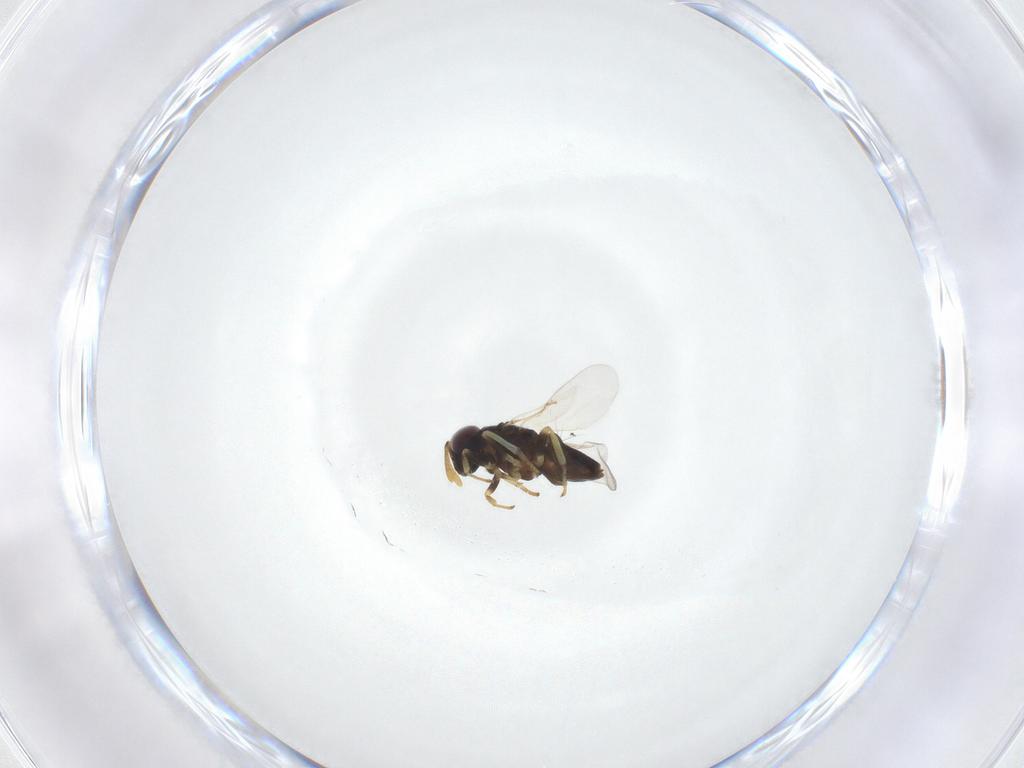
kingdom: Animalia
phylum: Arthropoda
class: Insecta
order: Hymenoptera
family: Encyrtidae
